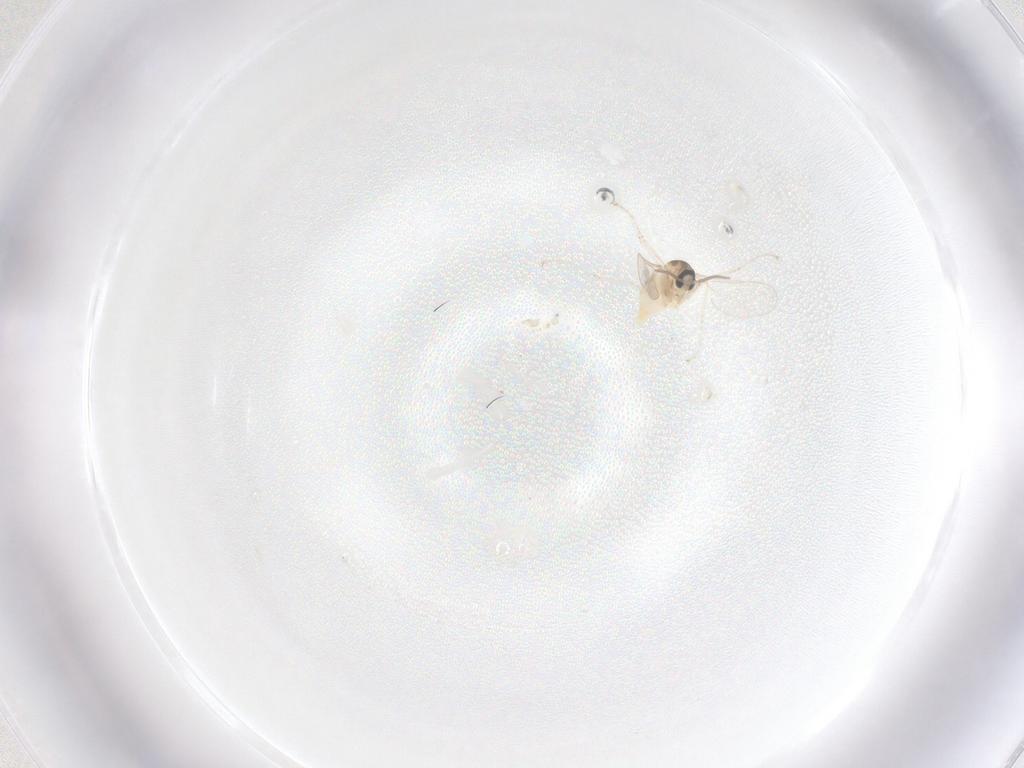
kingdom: Animalia
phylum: Arthropoda
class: Insecta
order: Diptera
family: Cecidomyiidae
